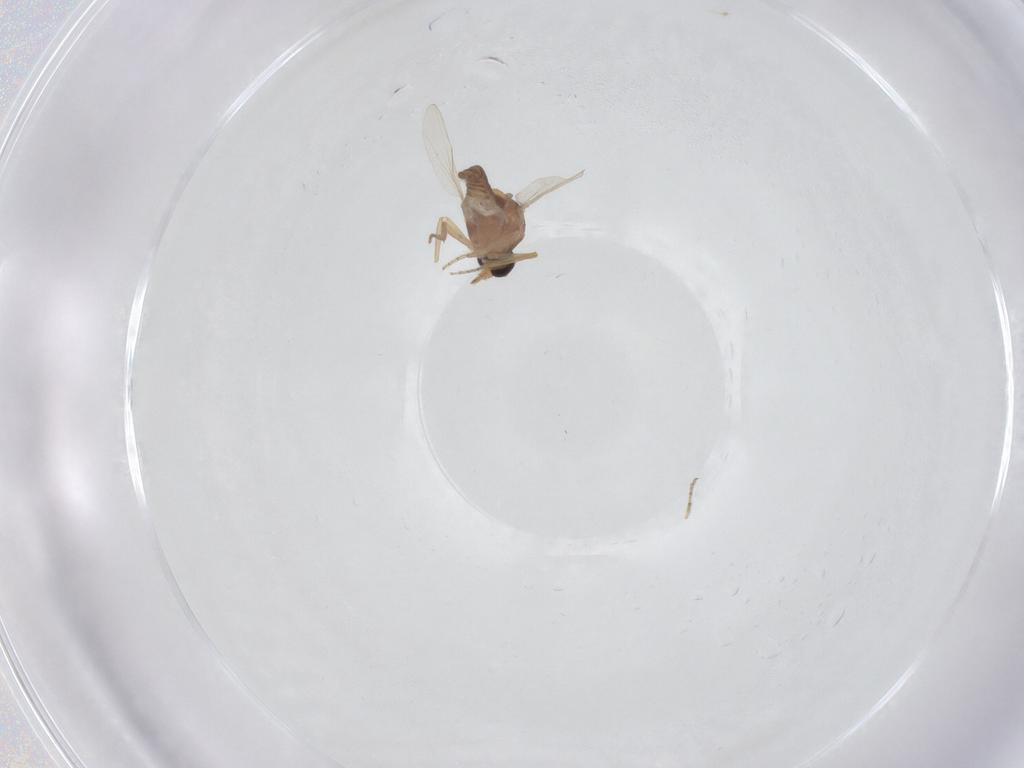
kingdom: Animalia
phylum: Arthropoda
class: Insecta
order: Diptera
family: Ceratopogonidae
